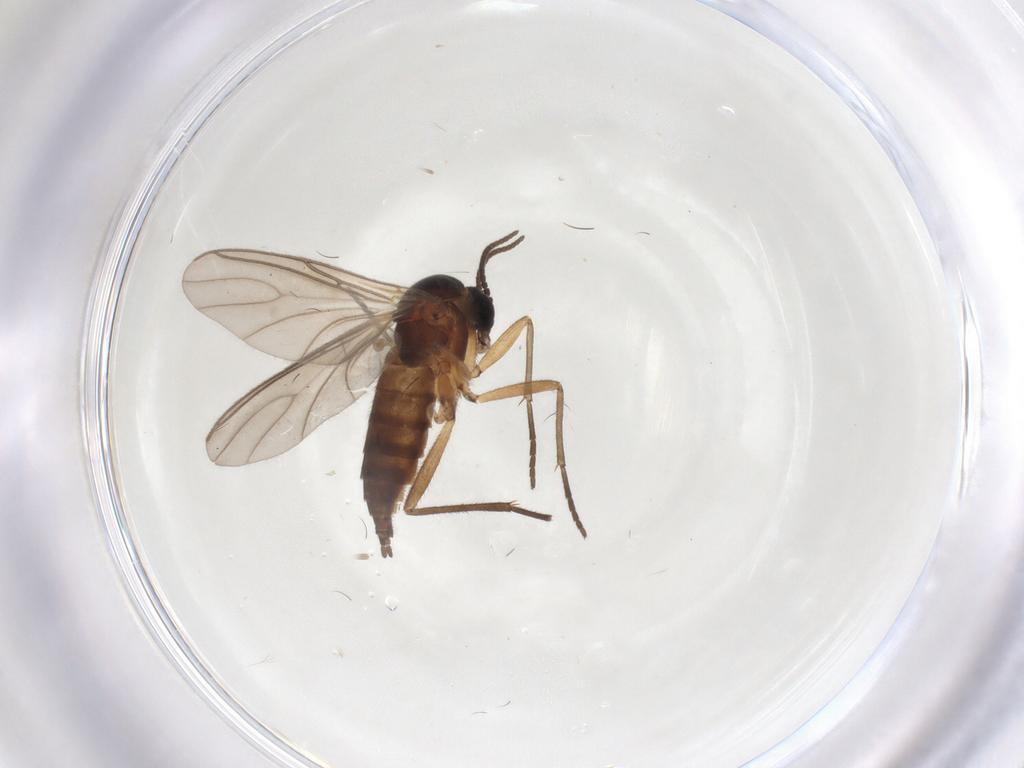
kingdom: Animalia
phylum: Arthropoda
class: Insecta
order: Diptera
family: Sciaridae
